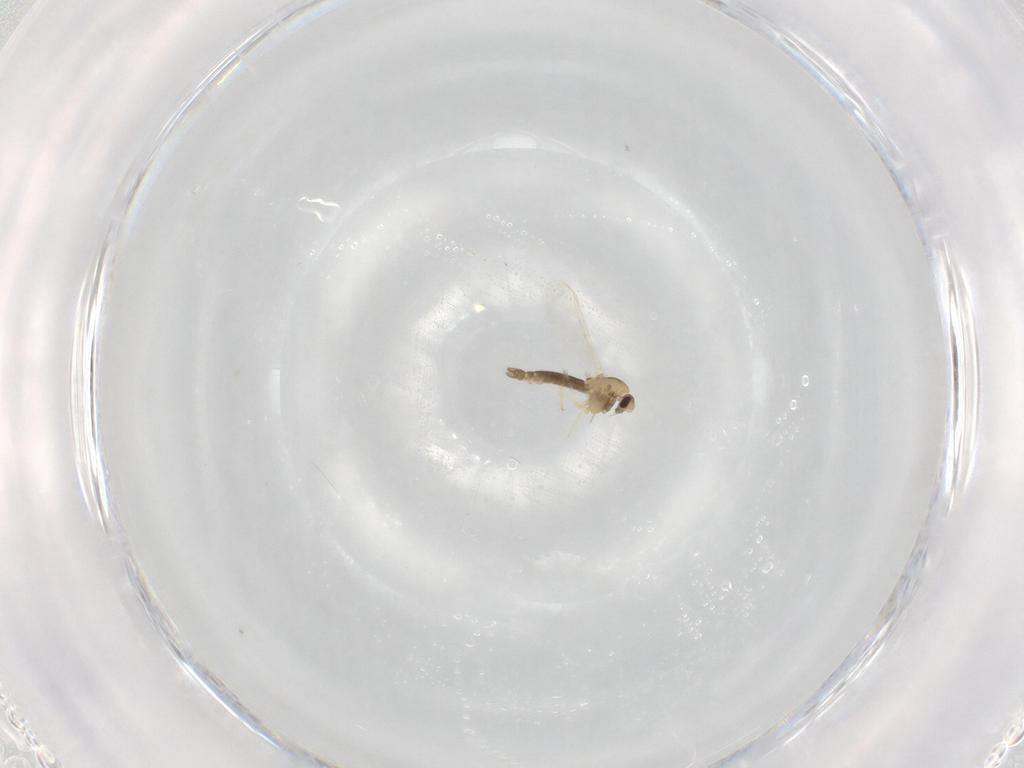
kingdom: Animalia
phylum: Arthropoda
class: Insecta
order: Diptera
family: Chironomidae
